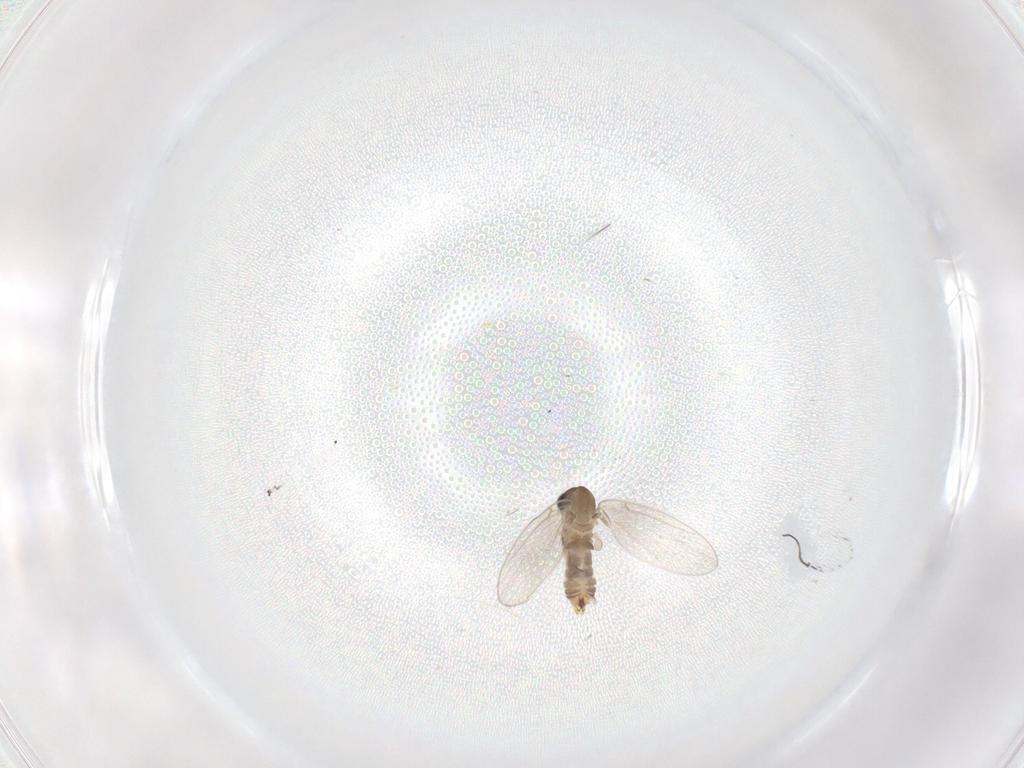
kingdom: Animalia
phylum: Arthropoda
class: Insecta
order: Diptera
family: Psychodidae
